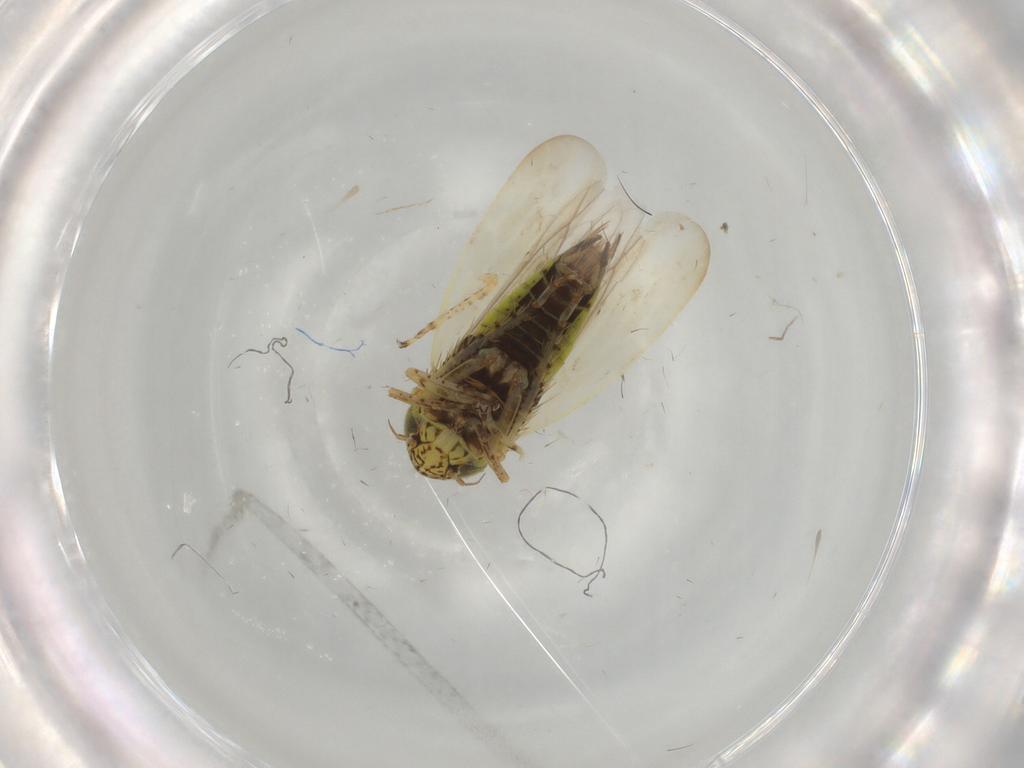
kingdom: Animalia
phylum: Arthropoda
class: Insecta
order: Hemiptera
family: Cicadellidae
